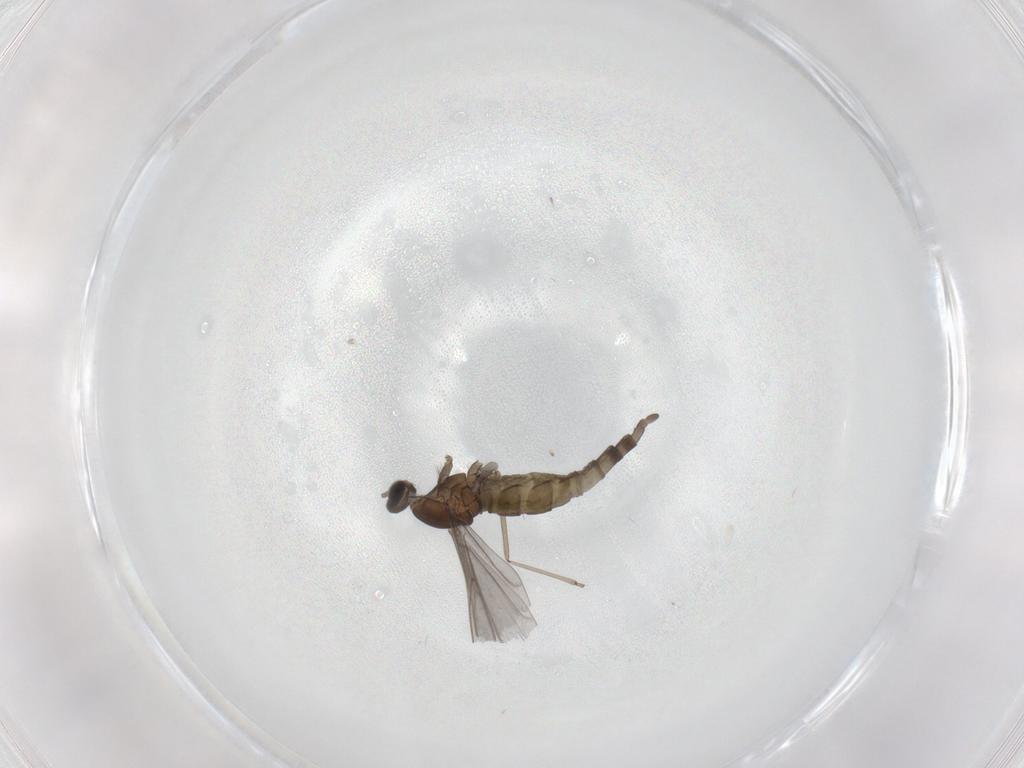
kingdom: Animalia
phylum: Arthropoda
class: Insecta
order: Diptera
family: Cecidomyiidae
